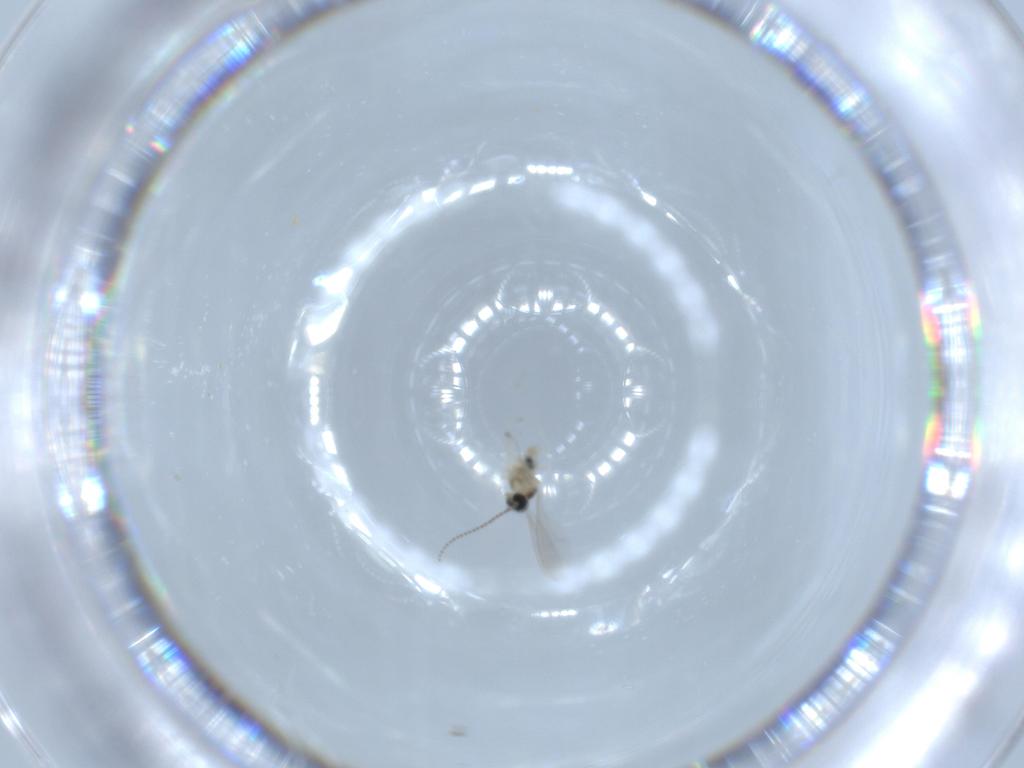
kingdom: Animalia
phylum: Arthropoda
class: Insecta
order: Diptera
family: Cecidomyiidae
